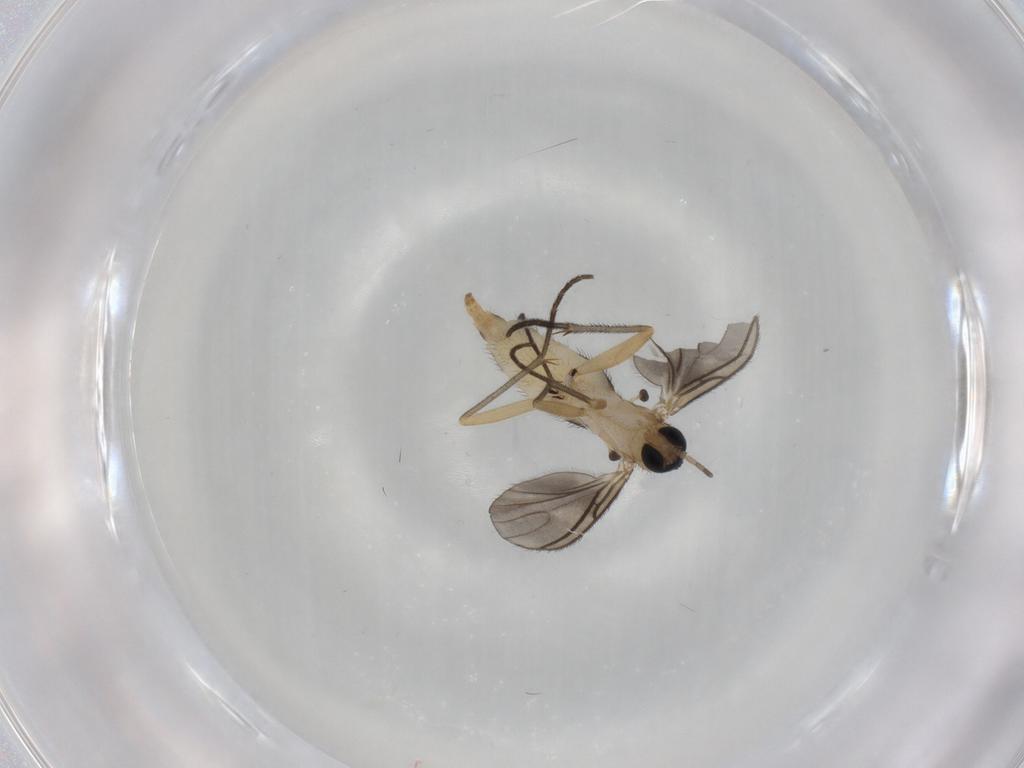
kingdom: Animalia
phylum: Arthropoda
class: Insecta
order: Diptera
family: Sciaridae
